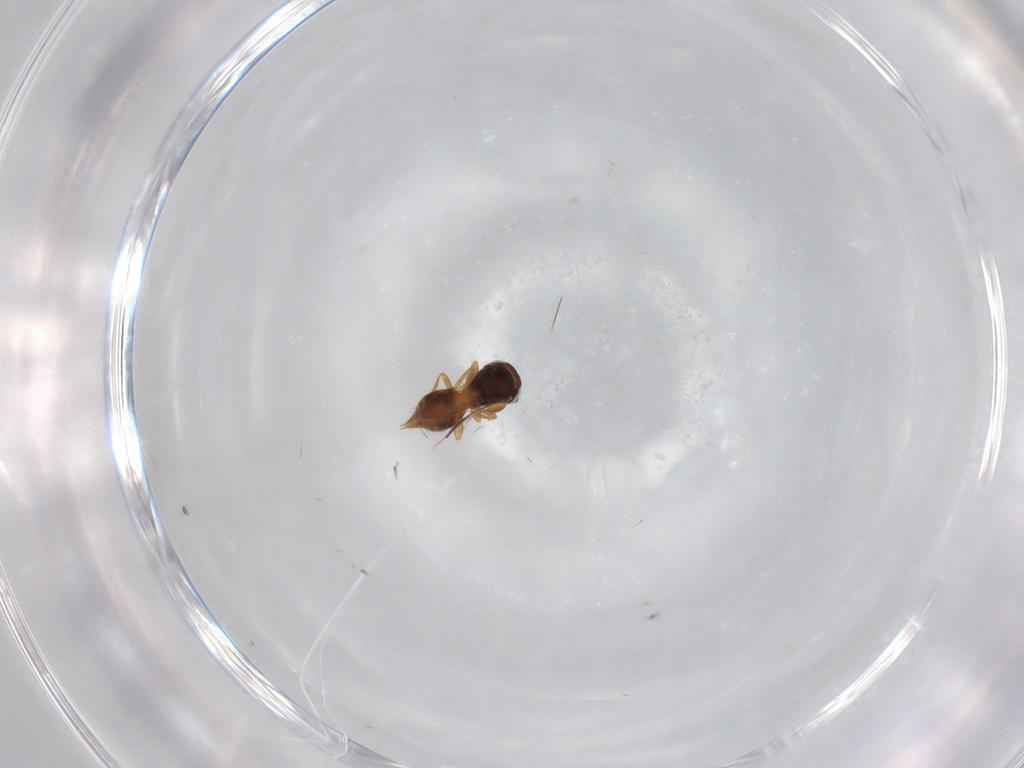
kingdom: Animalia
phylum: Arthropoda
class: Insecta
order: Hymenoptera
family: Scelionidae
